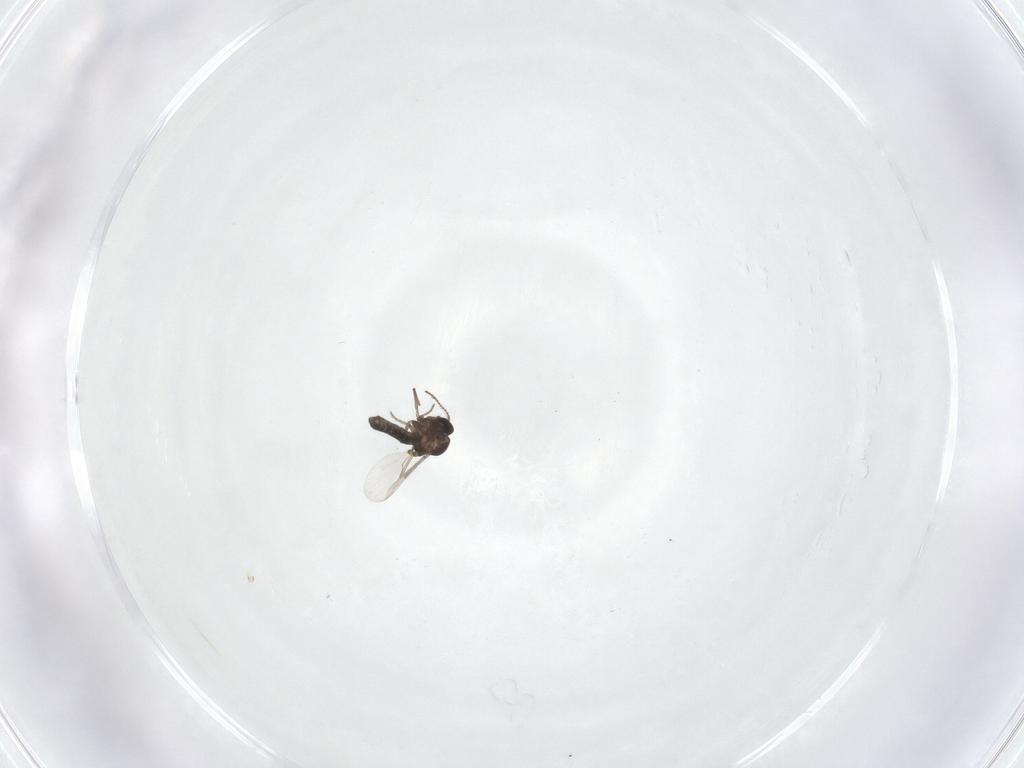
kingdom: Animalia
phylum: Arthropoda
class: Insecta
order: Diptera
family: Ceratopogonidae
